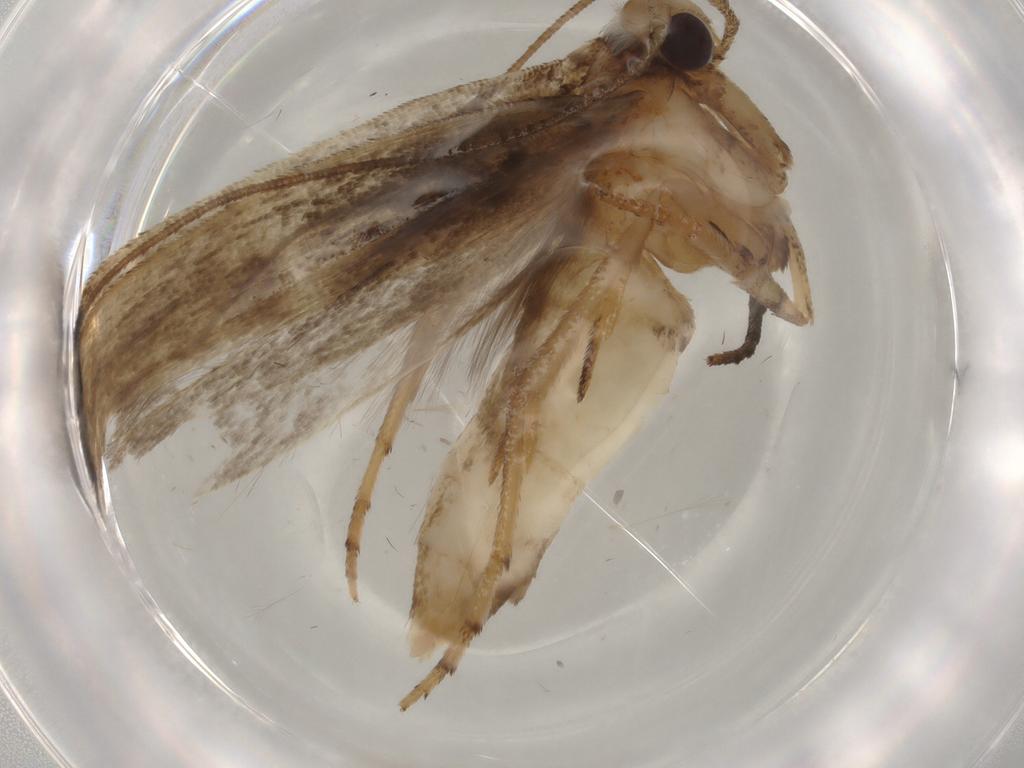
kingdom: Animalia
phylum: Arthropoda
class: Insecta
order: Lepidoptera
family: Yponomeutidae
